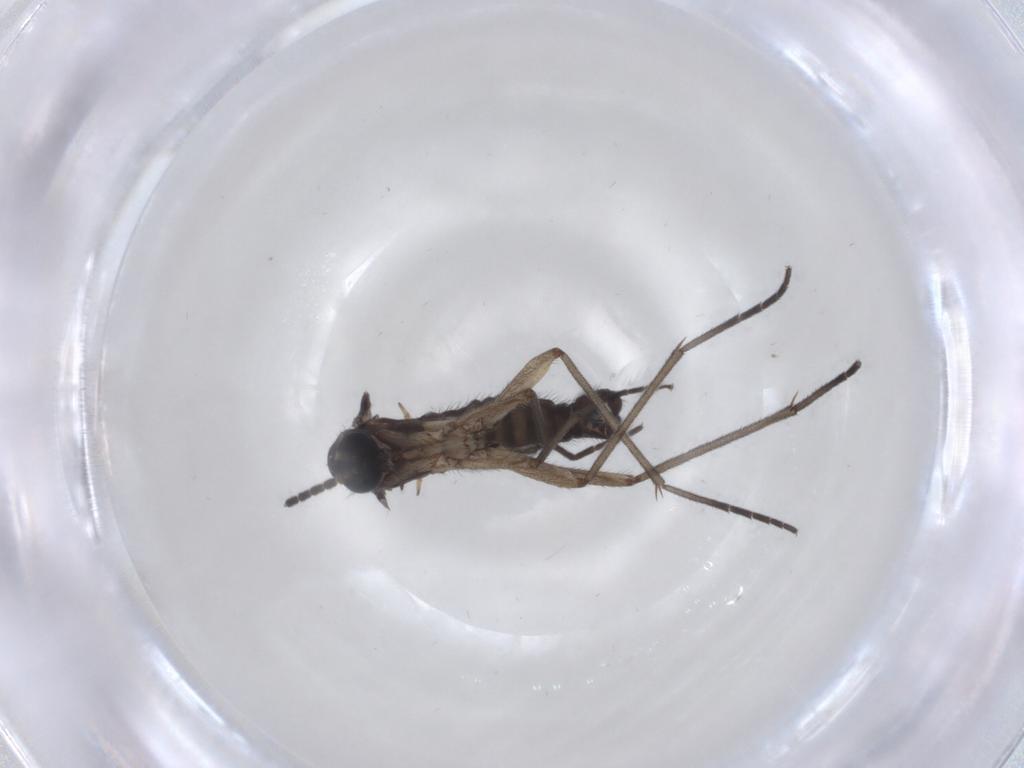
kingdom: Animalia
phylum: Arthropoda
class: Insecta
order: Diptera
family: Sciaridae
